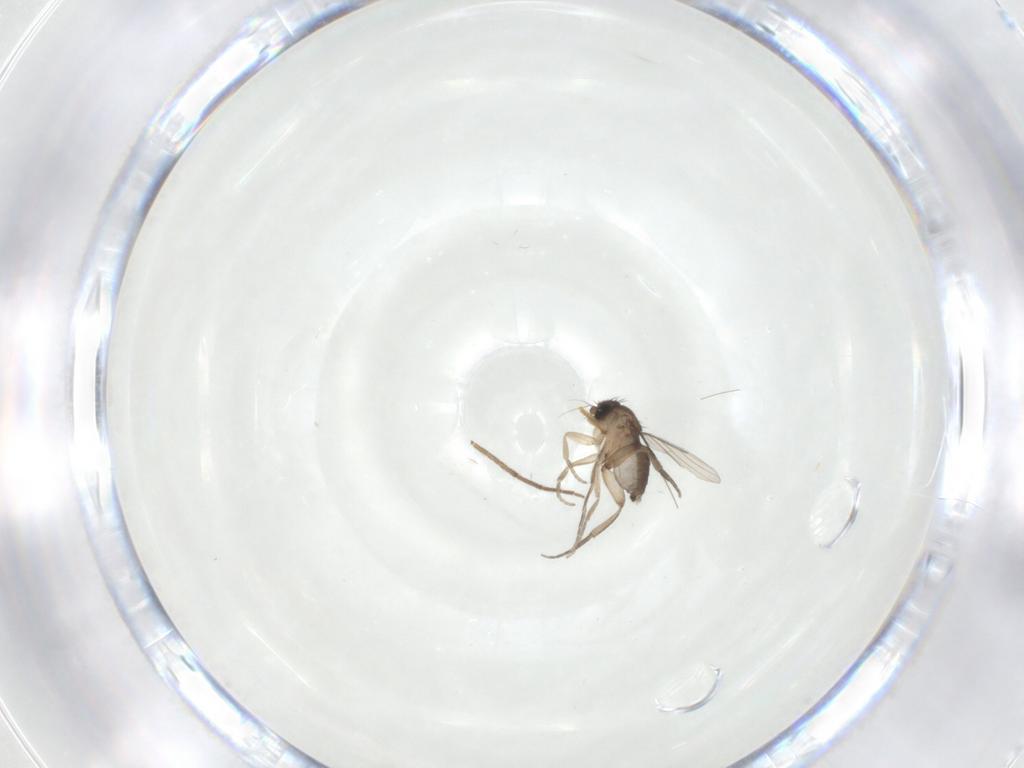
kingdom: Animalia
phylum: Arthropoda
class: Insecta
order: Diptera
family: Phoridae
